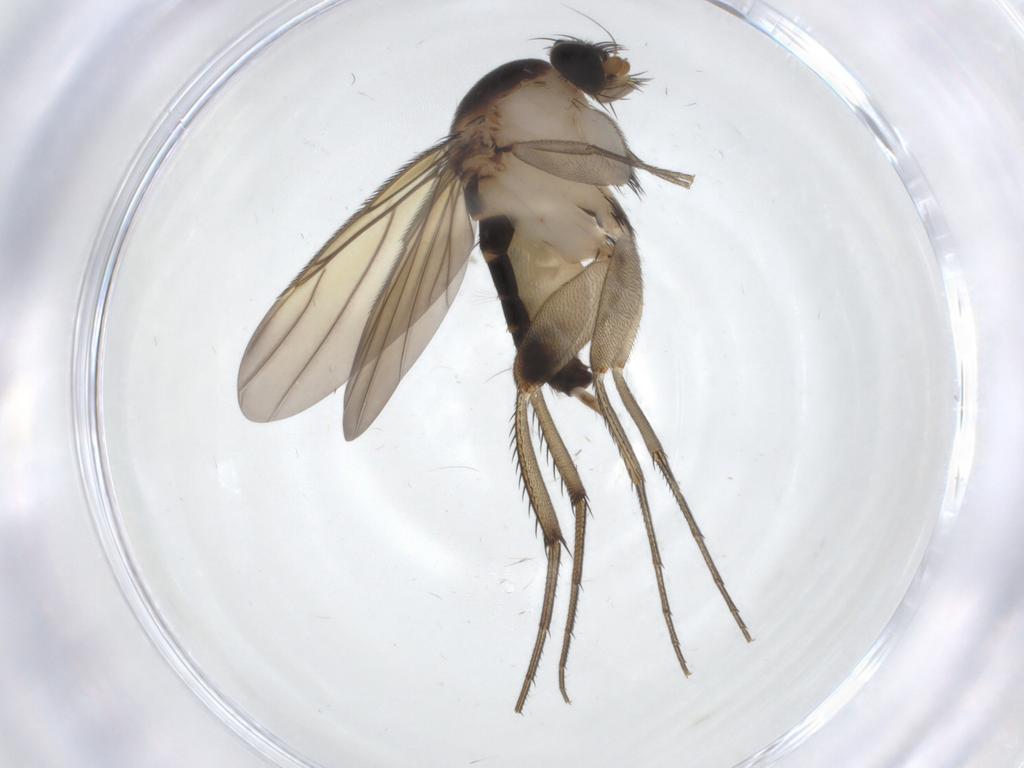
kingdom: Animalia
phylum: Arthropoda
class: Insecta
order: Diptera
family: Phoridae
